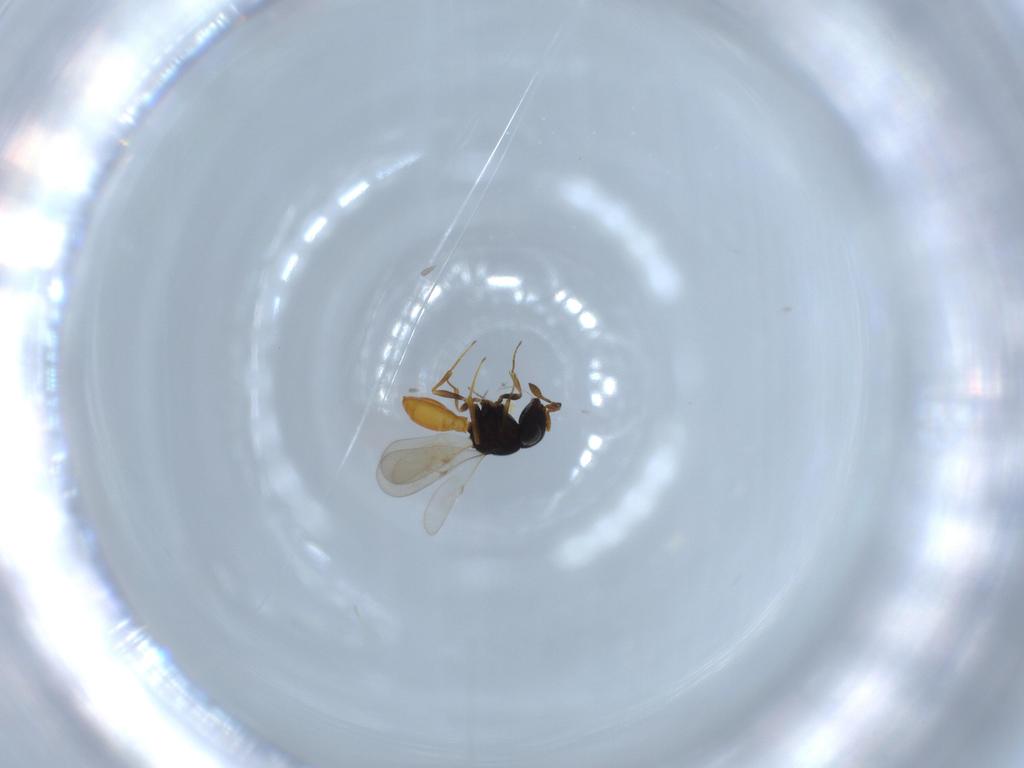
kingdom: Animalia
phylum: Arthropoda
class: Insecta
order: Hymenoptera
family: Scelionidae
